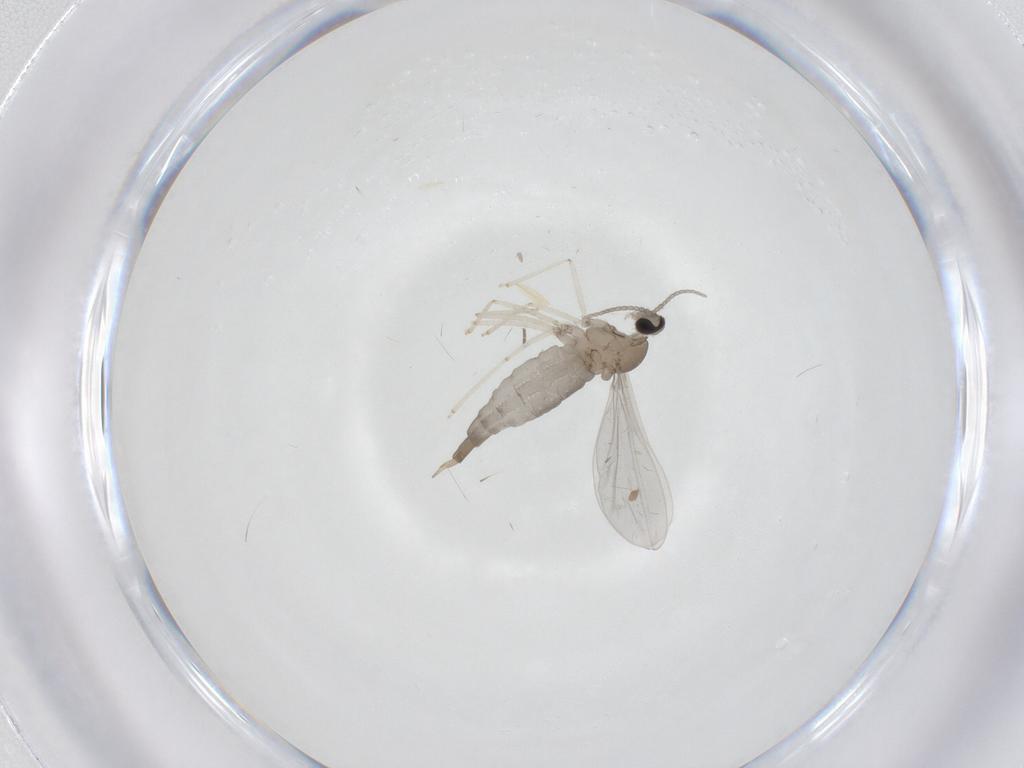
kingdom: Animalia
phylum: Arthropoda
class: Insecta
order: Diptera
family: Cecidomyiidae
